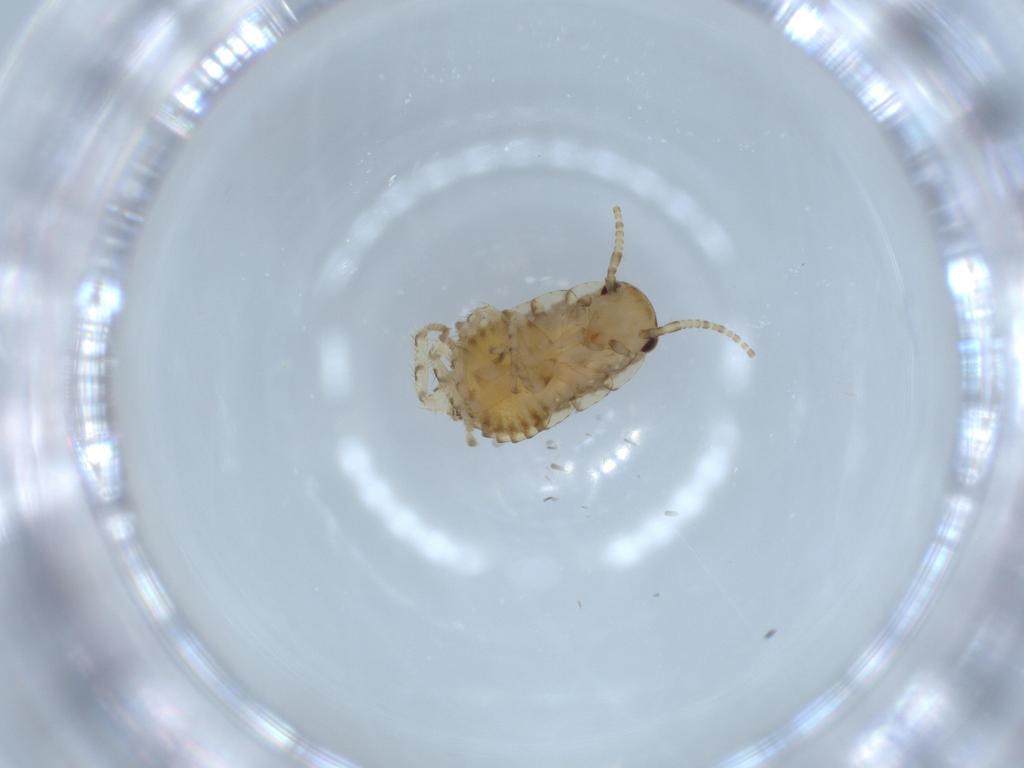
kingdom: Animalia
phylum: Arthropoda
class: Insecta
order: Blattodea
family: Ectobiidae
